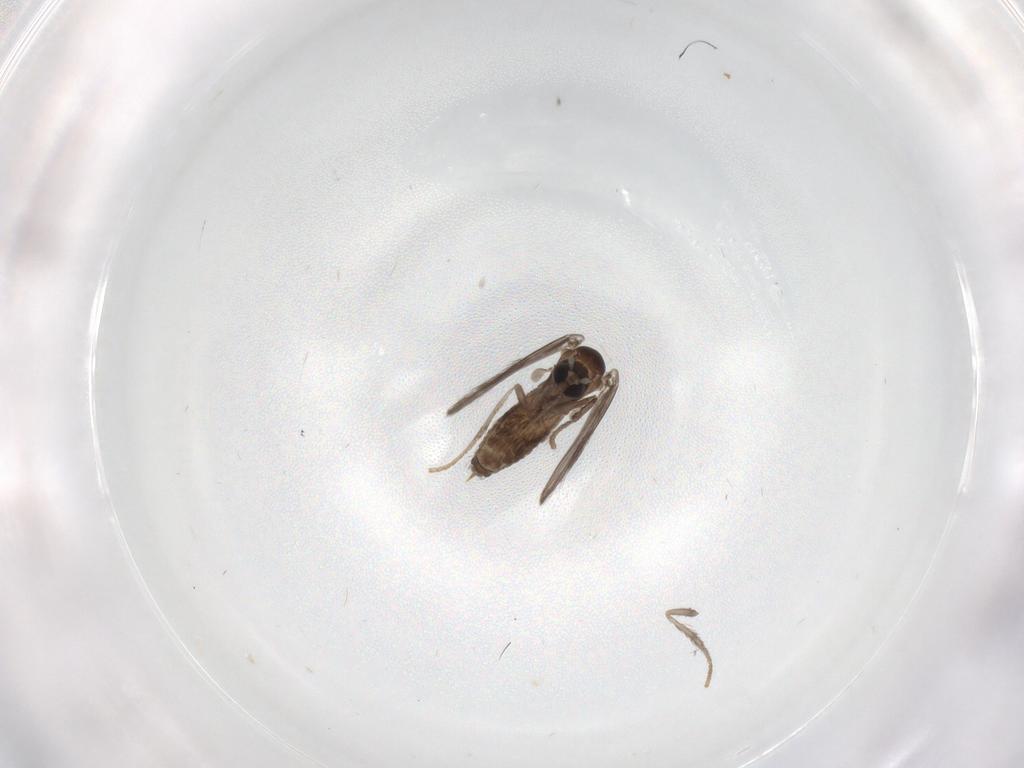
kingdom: Animalia
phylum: Arthropoda
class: Insecta
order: Diptera
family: Psychodidae
